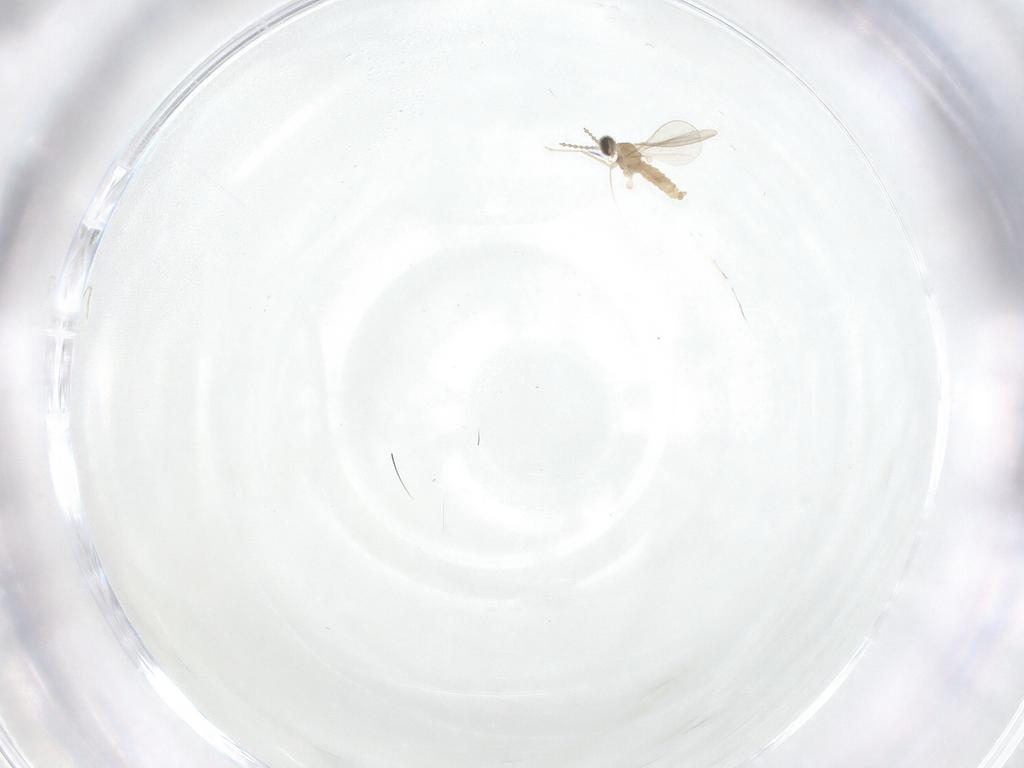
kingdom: Animalia
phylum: Arthropoda
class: Insecta
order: Diptera
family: Cecidomyiidae
